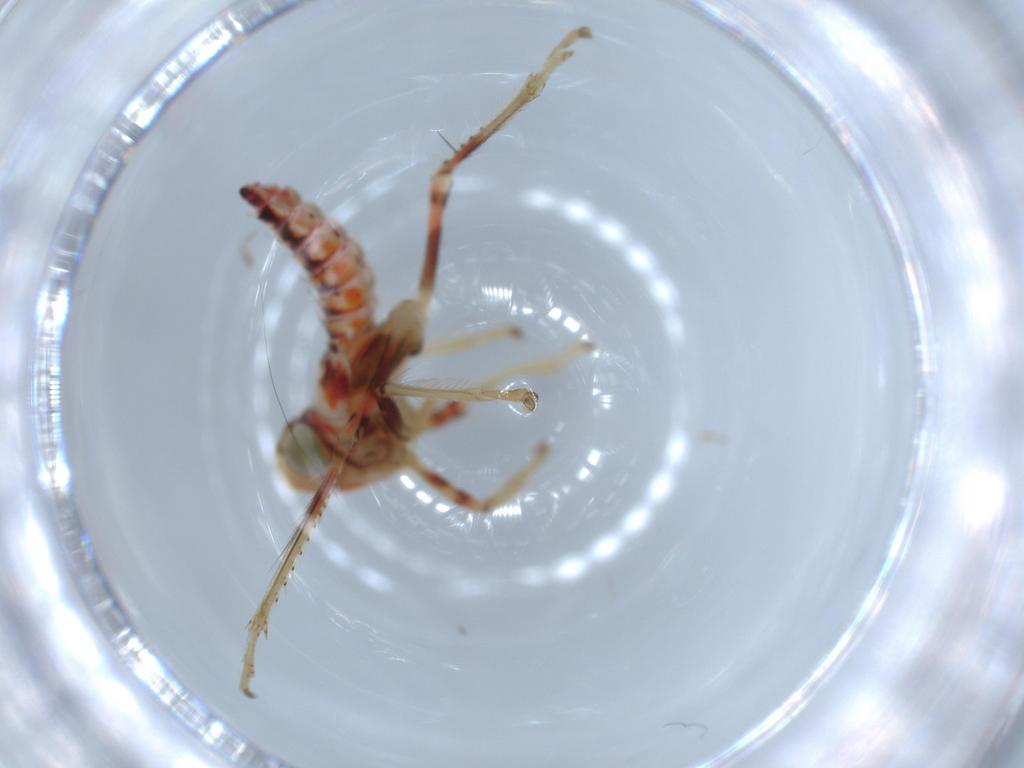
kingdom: Animalia
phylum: Arthropoda
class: Insecta
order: Hemiptera
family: Cicadellidae
